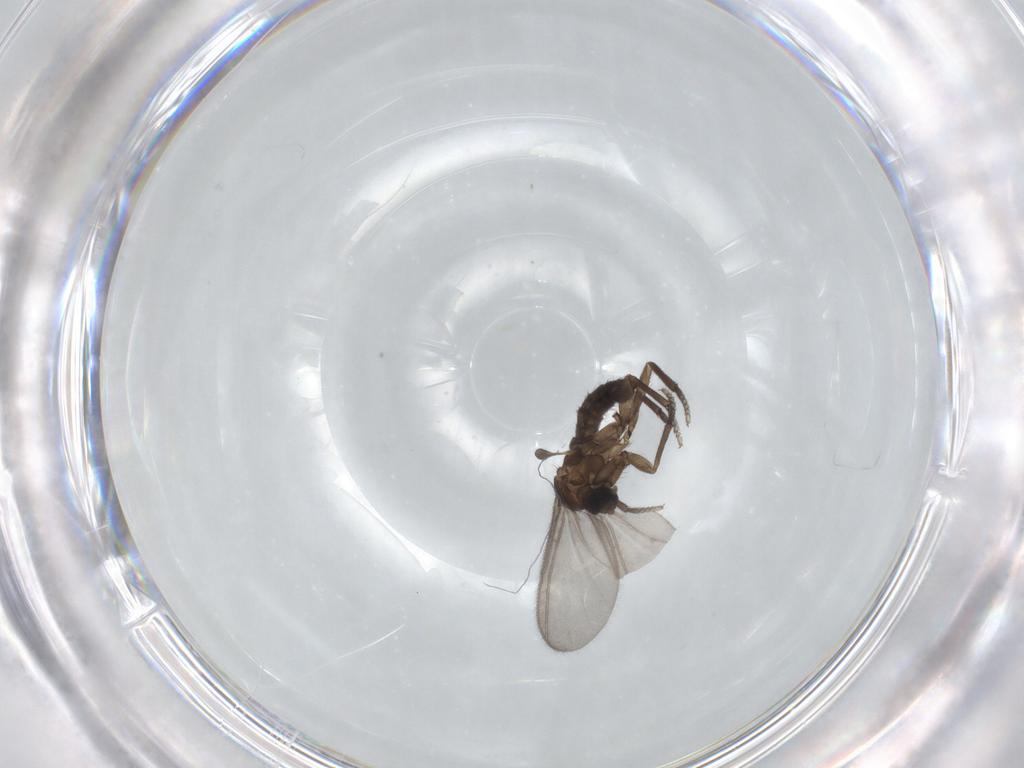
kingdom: Animalia
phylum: Arthropoda
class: Insecta
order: Diptera
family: Sciaridae
